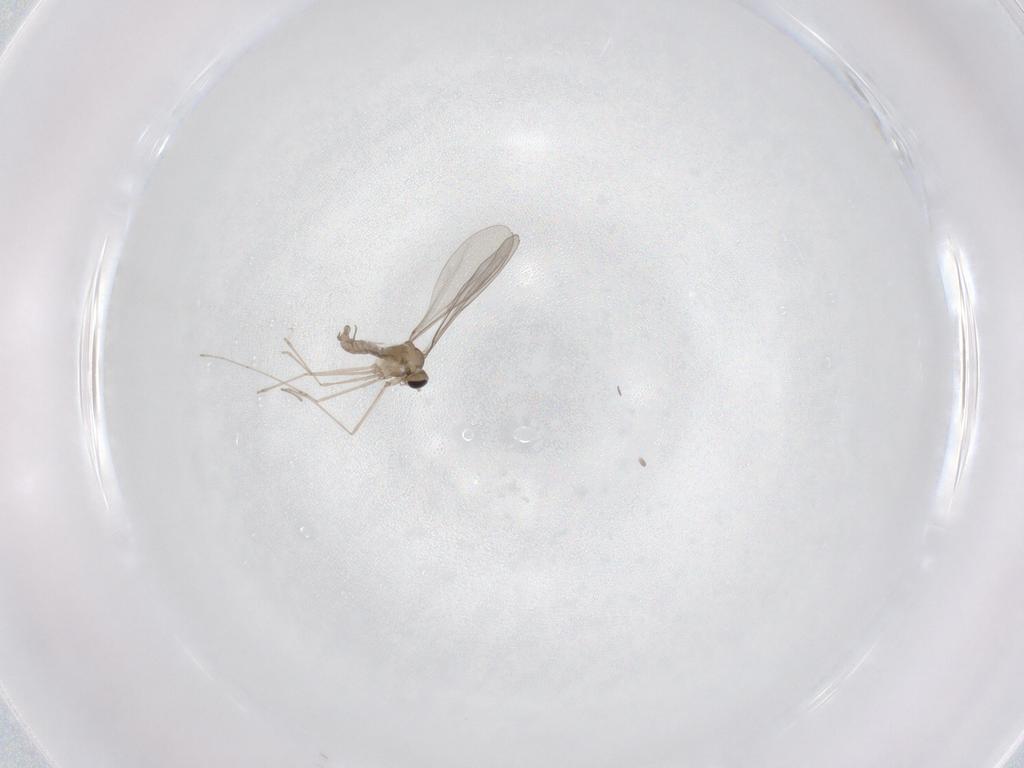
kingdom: Animalia
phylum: Arthropoda
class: Insecta
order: Diptera
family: Cecidomyiidae
